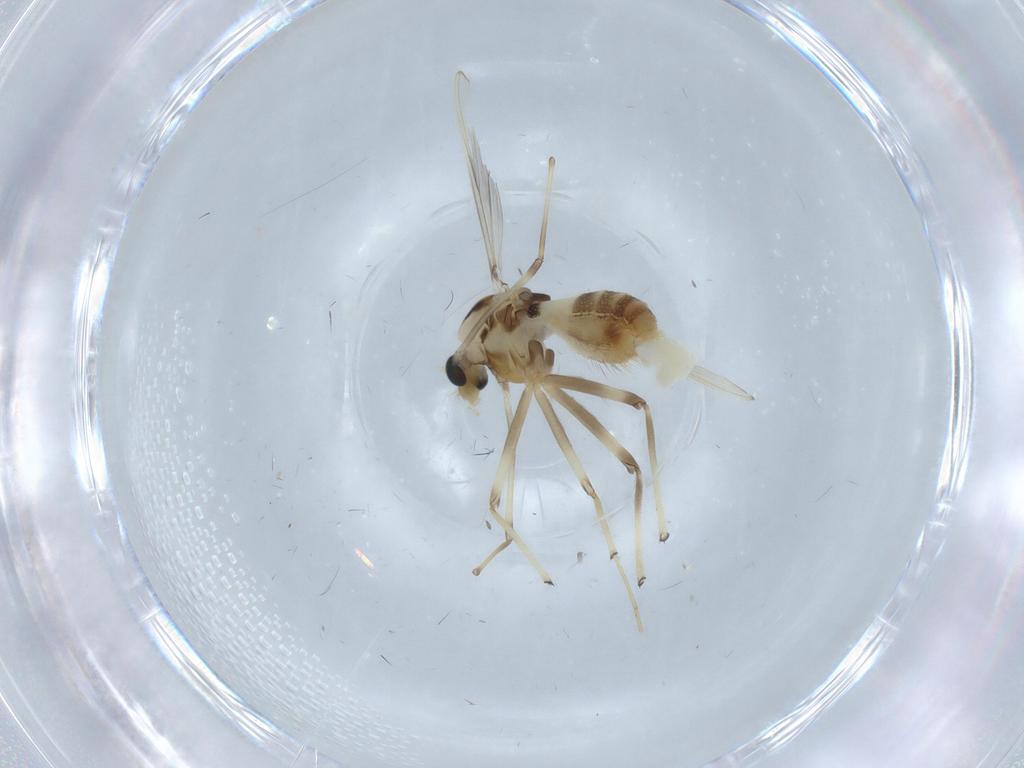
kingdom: Animalia
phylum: Arthropoda
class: Insecta
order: Diptera
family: Chironomidae
